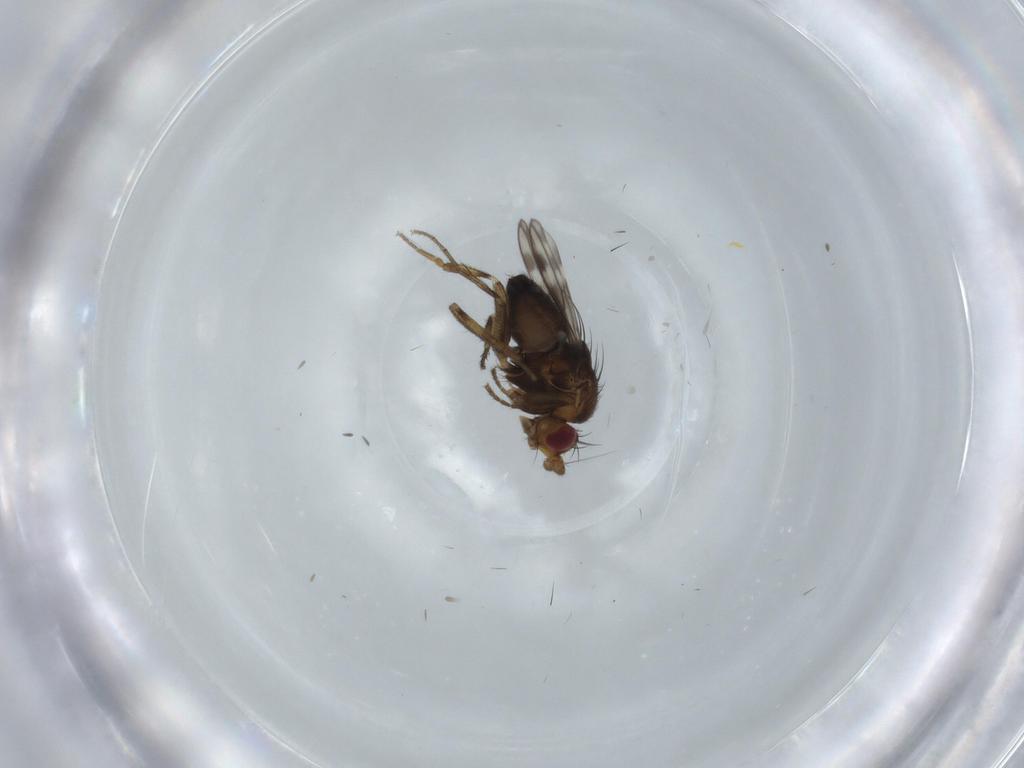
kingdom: Animalia
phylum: Arthropoda
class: Insecta
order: Diptera
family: Sphaeroceridae
